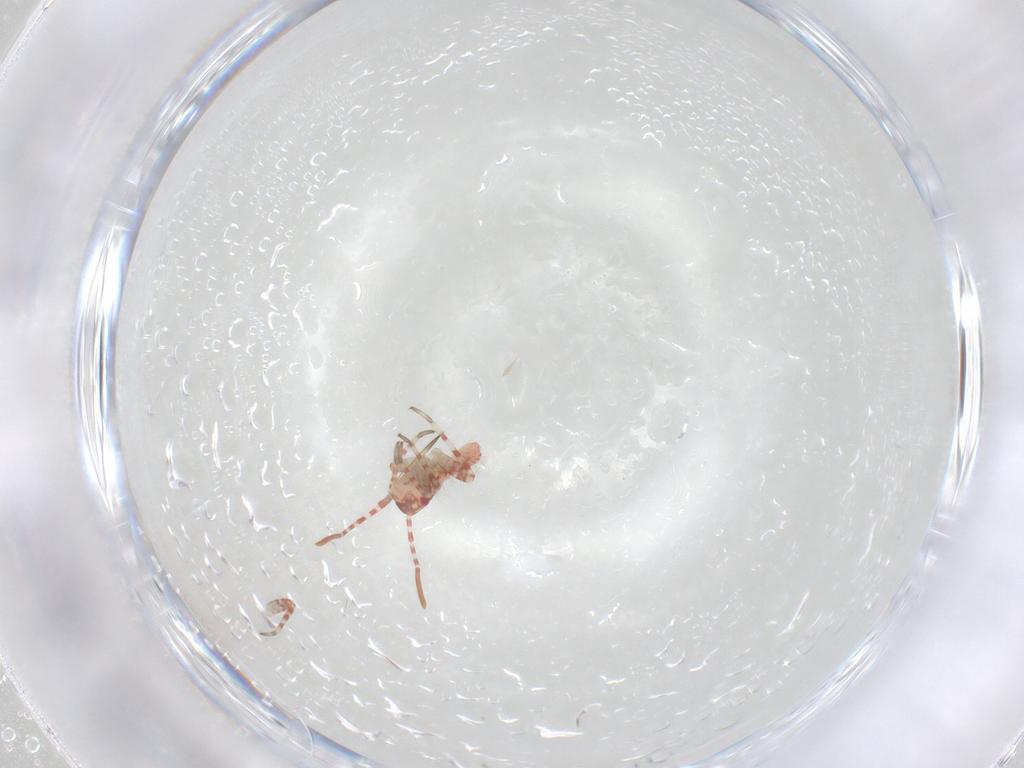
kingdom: Animalia
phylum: Arthropoda
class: Insecta
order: Hemiptera
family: Miridae
